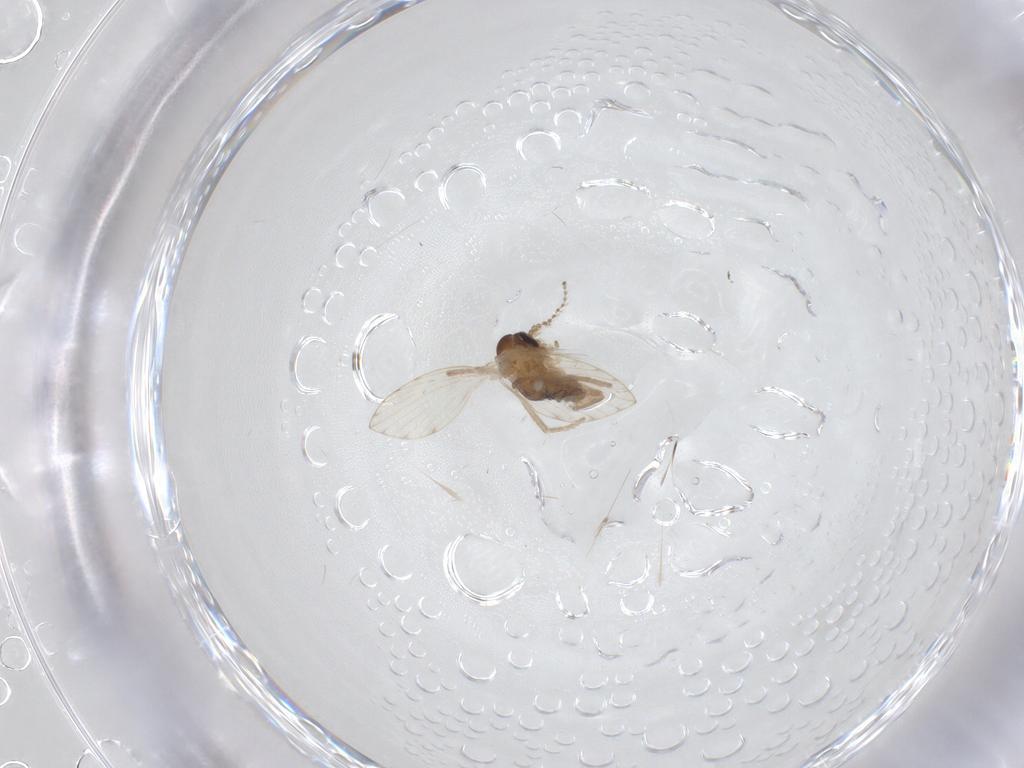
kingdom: Animalia
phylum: Arthropoda
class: Insecta
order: Diptera
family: Psychodidae
